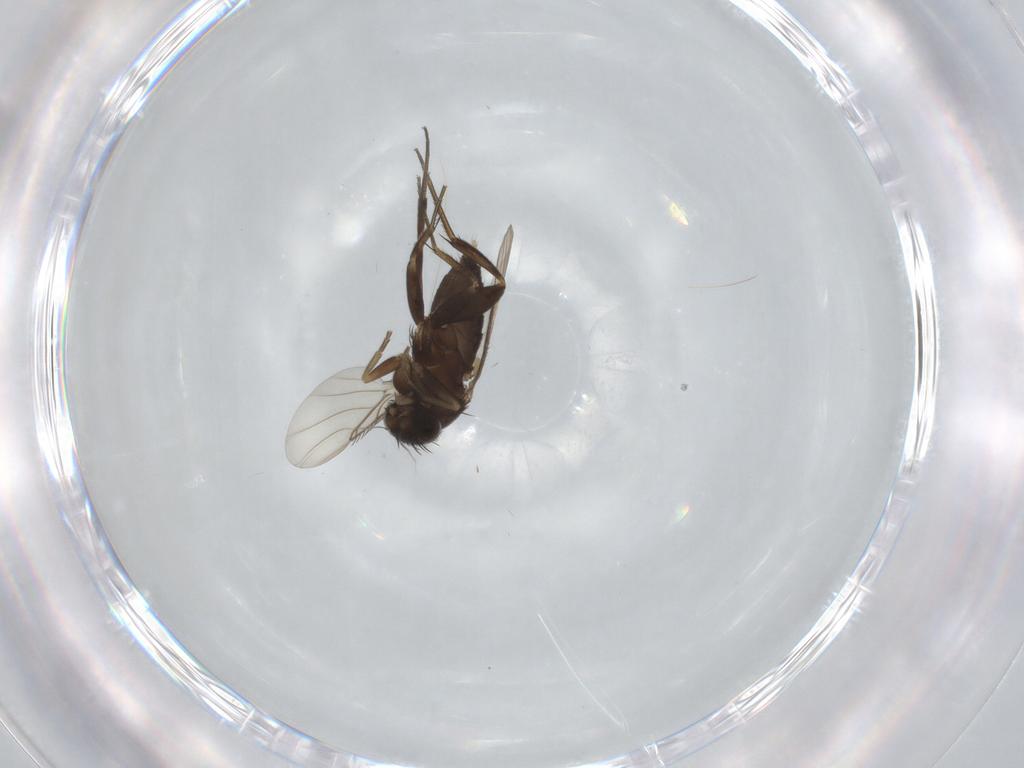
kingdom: Animalia
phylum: Arthropoda
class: Insecta
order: Diptera
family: Phoridae
